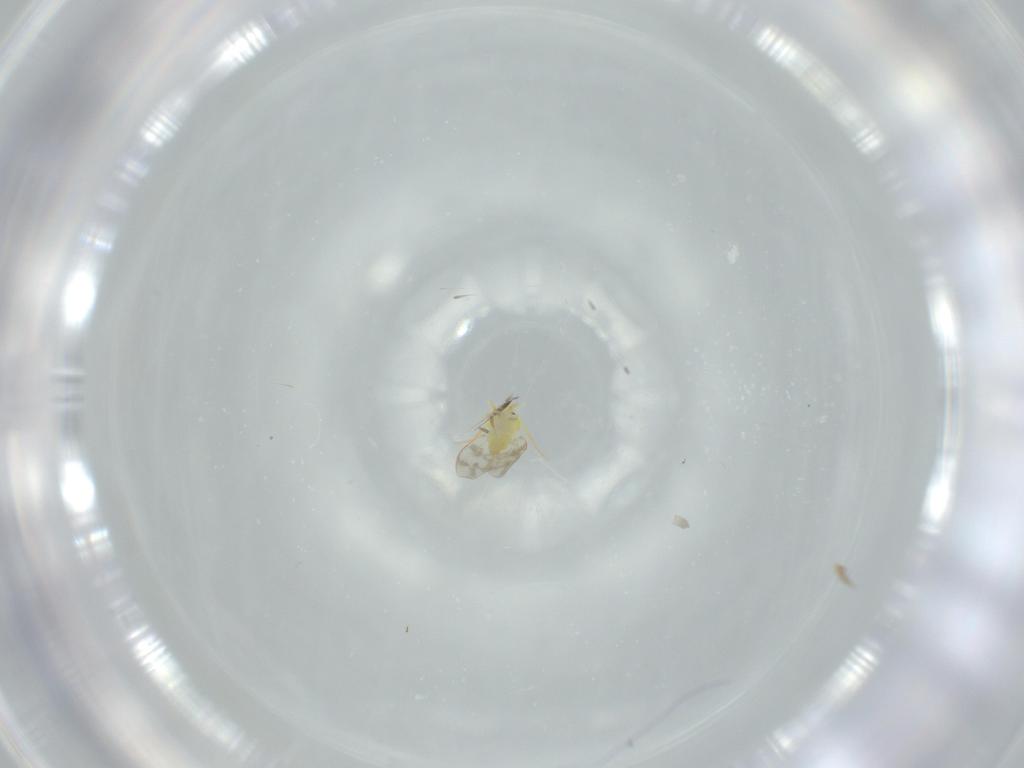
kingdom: Animalia
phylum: Arthropoda
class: Insecta
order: Hemiptera
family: Aleyrodidae
